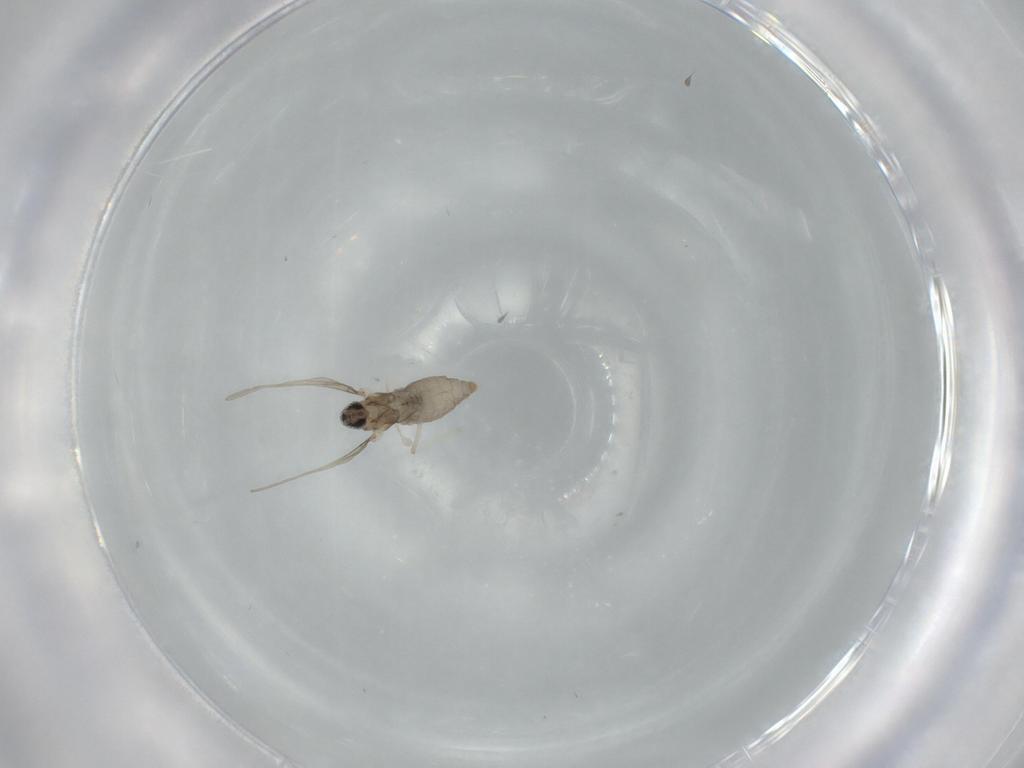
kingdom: Animalia
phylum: Arthropoda
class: Insecta
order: Diptera
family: Cecidomyiidae
